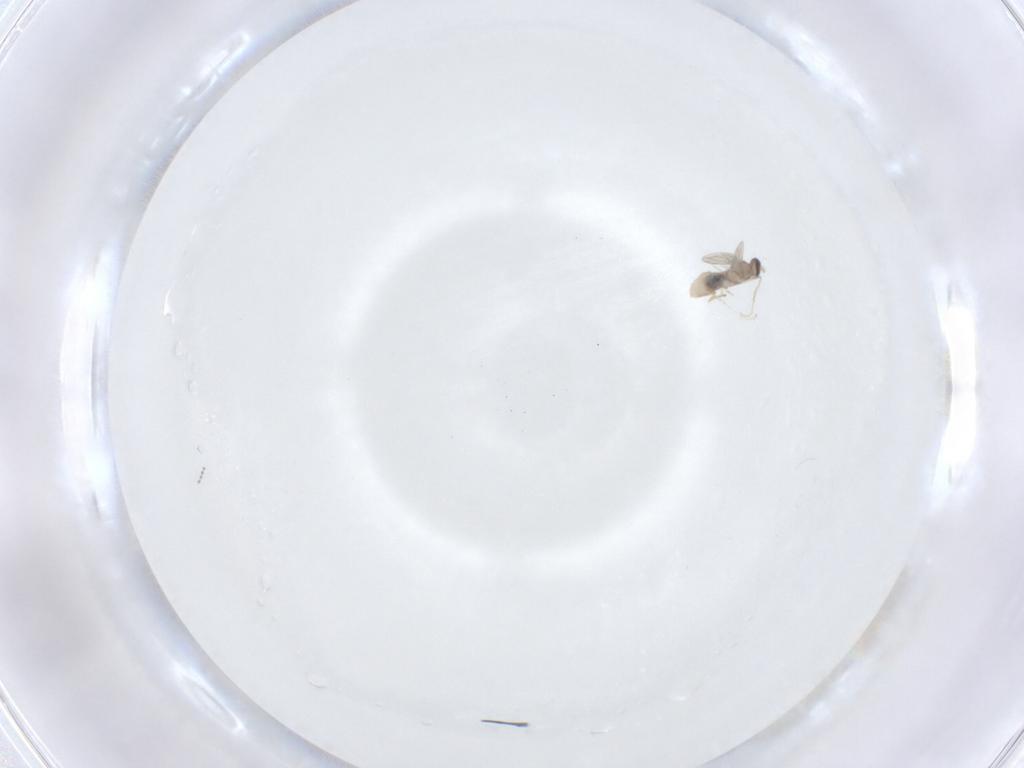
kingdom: Animalia
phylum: Arthropoda
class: Insecta
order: Diptera
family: Cecidomyiidae
